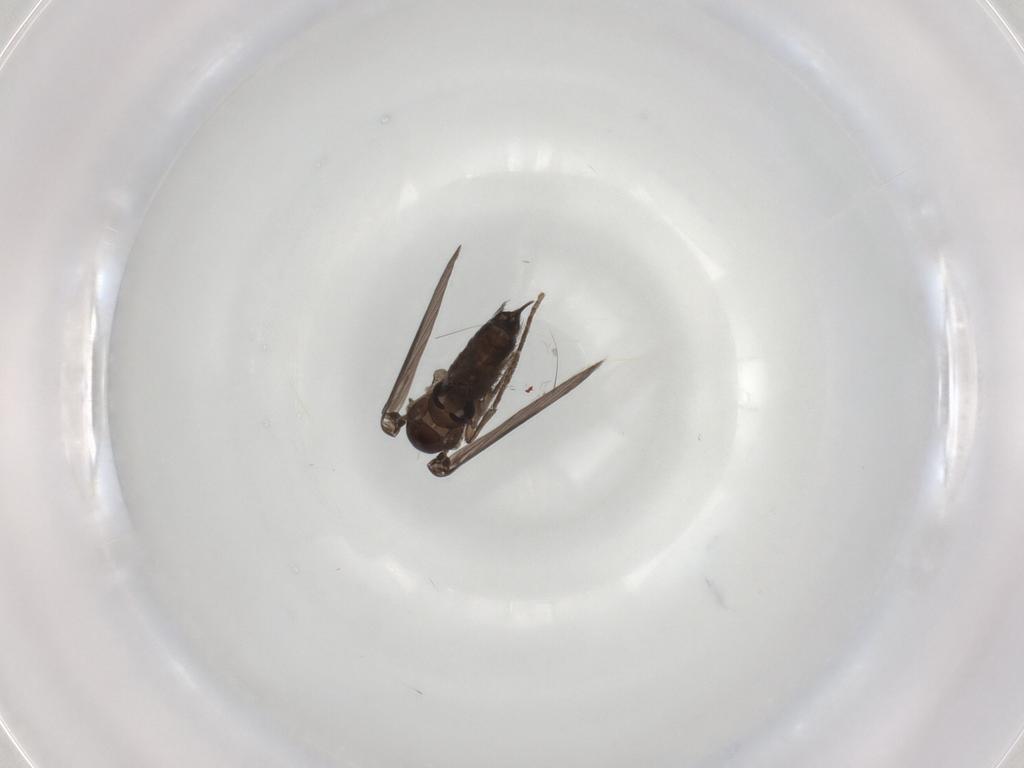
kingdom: Animalia
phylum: Arthropoda
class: Insecta
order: Diptera
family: Psychodidae
